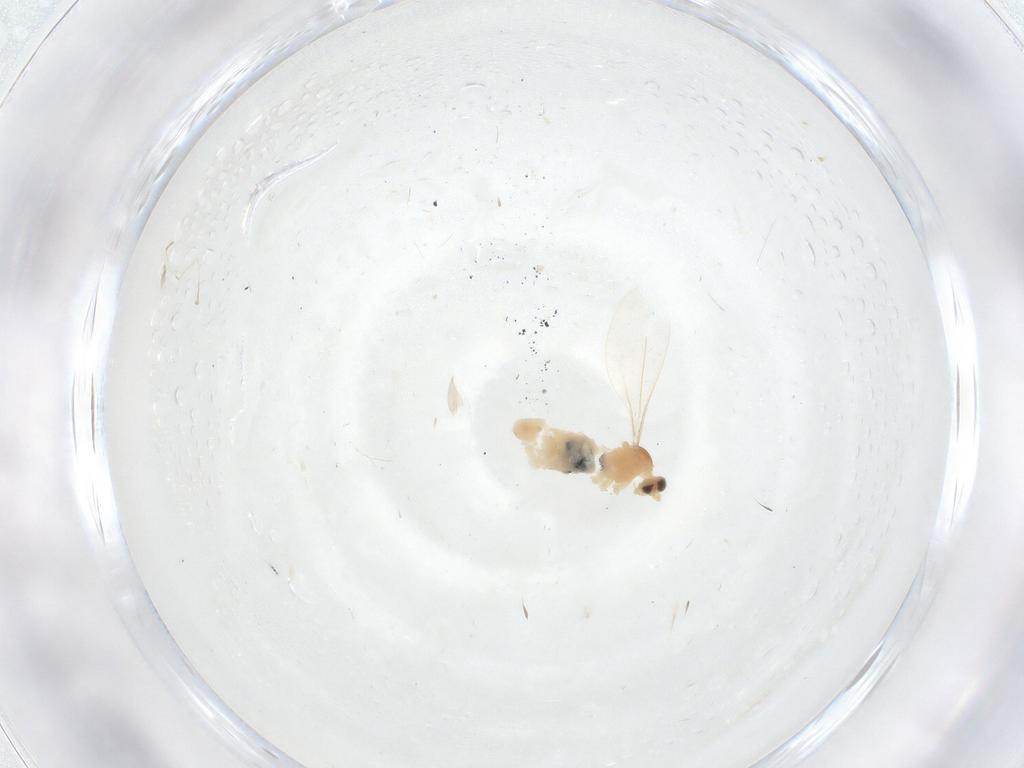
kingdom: Animalia
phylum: Arthropoda
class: Insecta
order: Diptera
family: Cecidomyiidae
